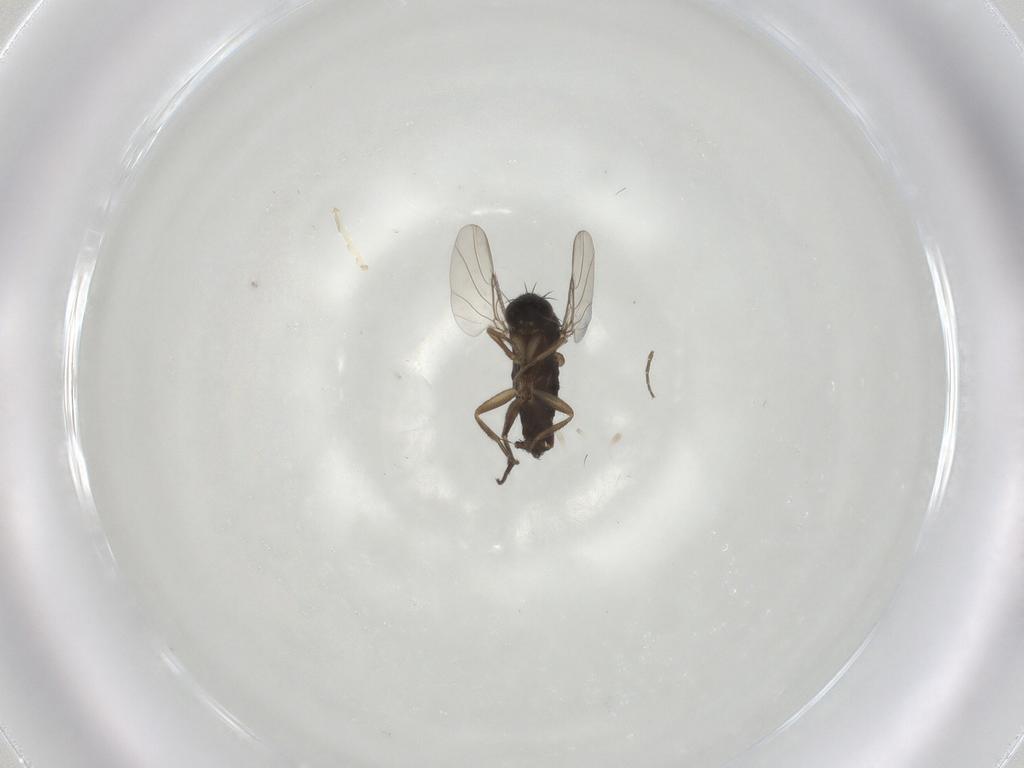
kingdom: Animalia
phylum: Arthropoda
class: Insecta
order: Diptera
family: Phoridae
